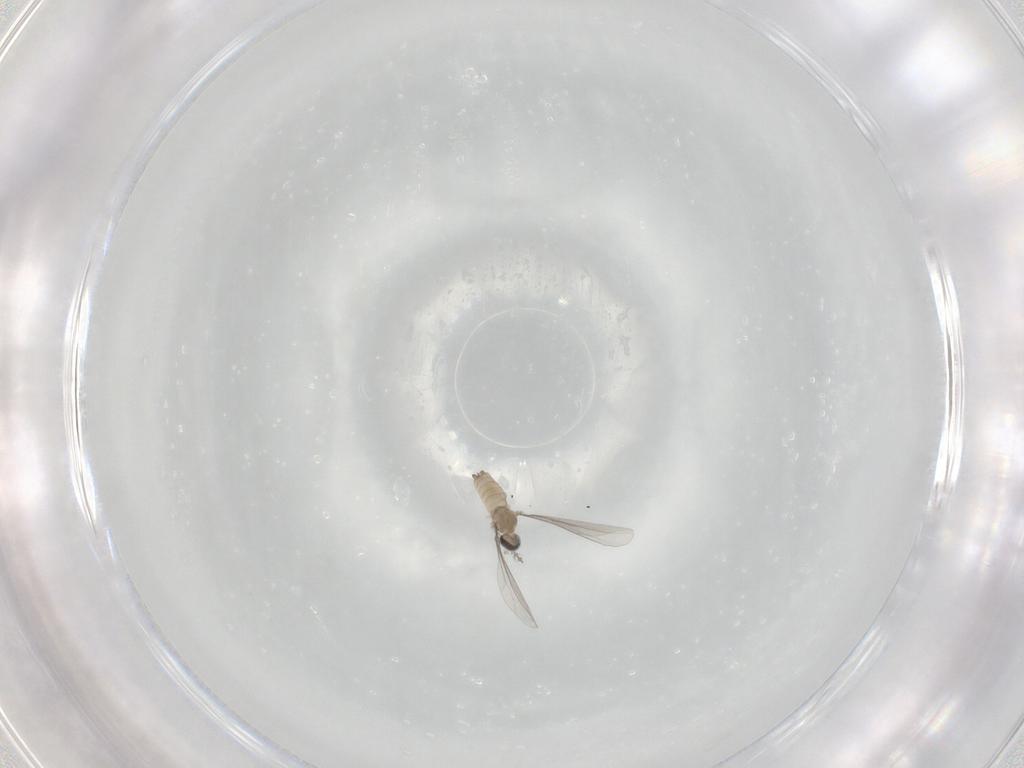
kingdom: Animalia
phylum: Arthropoda
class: Insecta
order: Diptera
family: Cecidomyiidae
